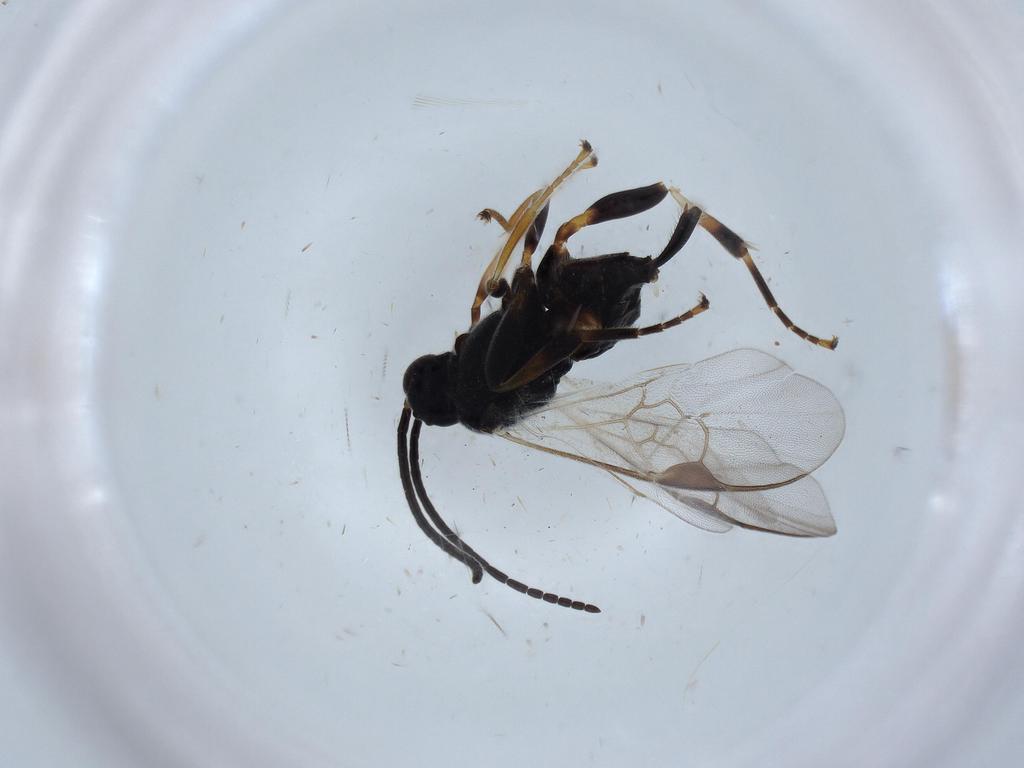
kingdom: Animalia
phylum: Arthropoda
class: Insecta
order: Hymenoptera
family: Braconidae
